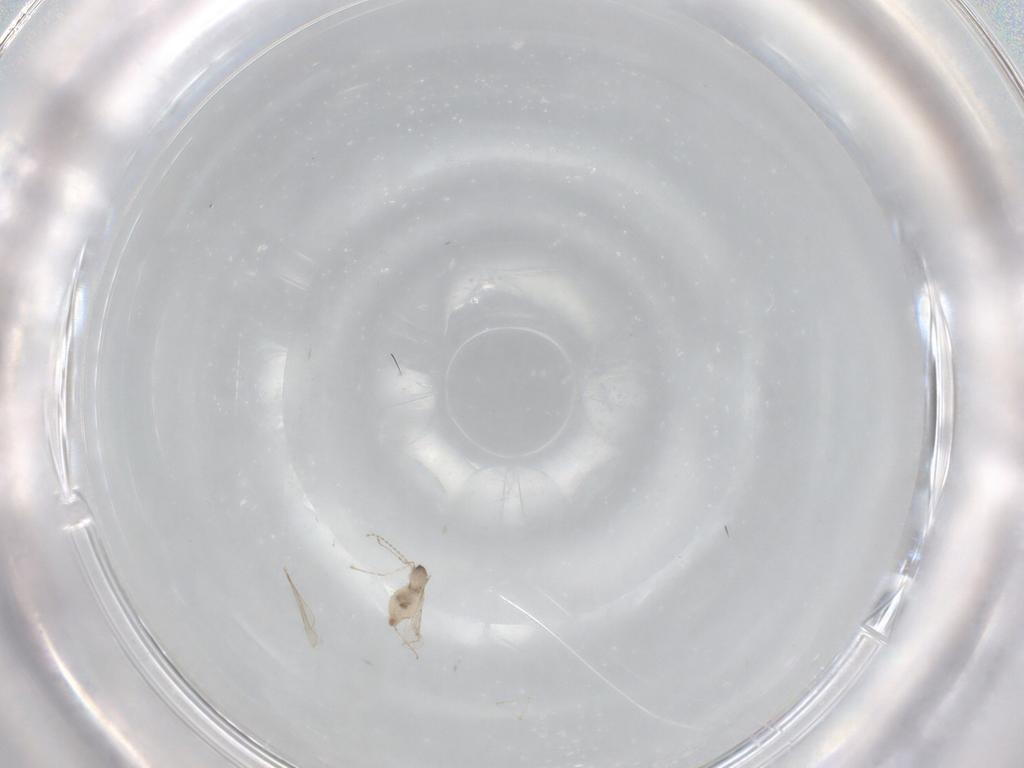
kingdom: Animalia
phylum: Arthropoda
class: Insecta
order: Diptera
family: Cecidomyiidae
